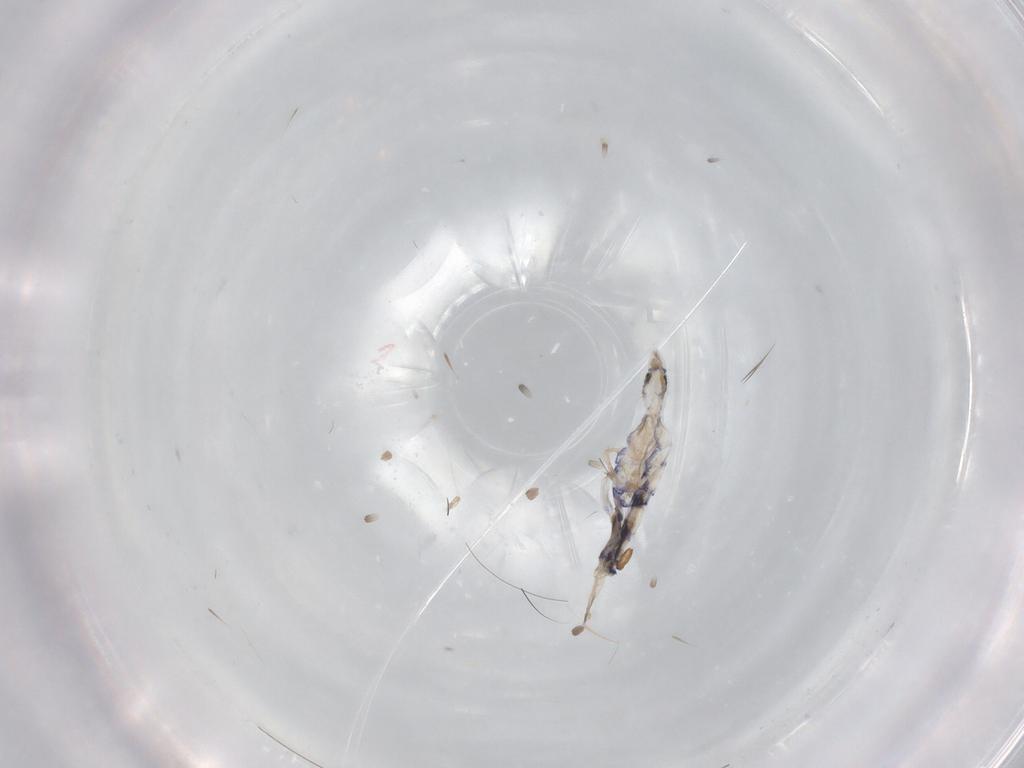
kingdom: Animalia
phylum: Arthropoda
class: Collembola
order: Entomobryomorpha
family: Entomobryidae
